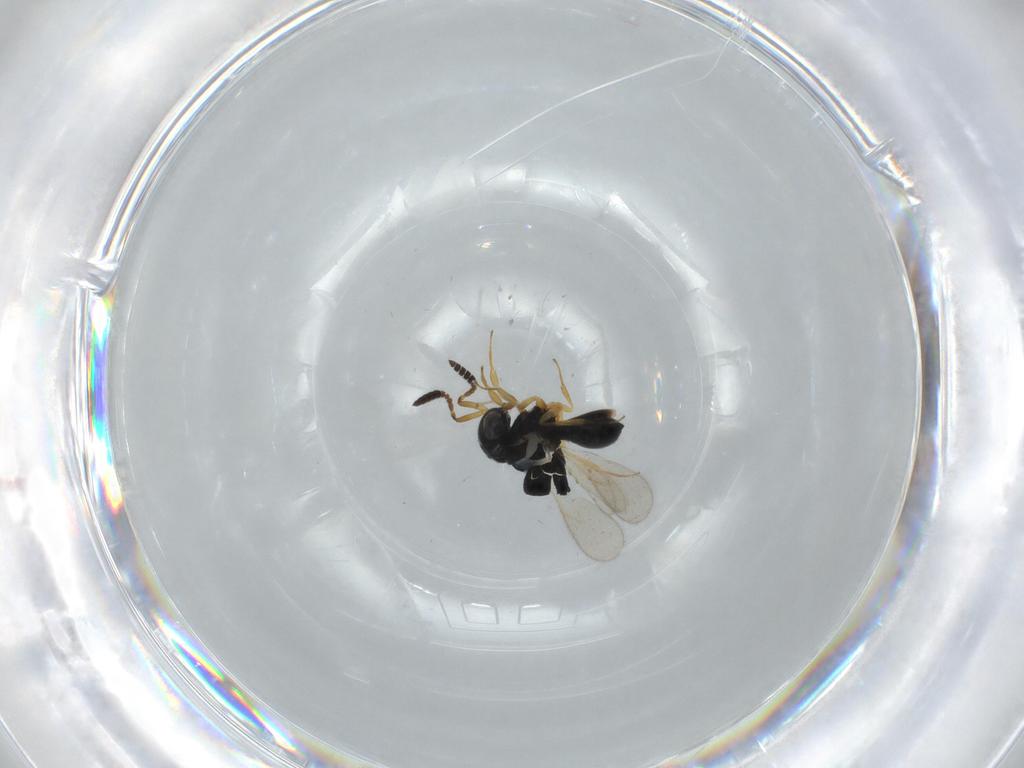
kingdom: Animalia
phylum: Arthropoda
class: Insecta
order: Hymenoptera
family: Scelionidae
